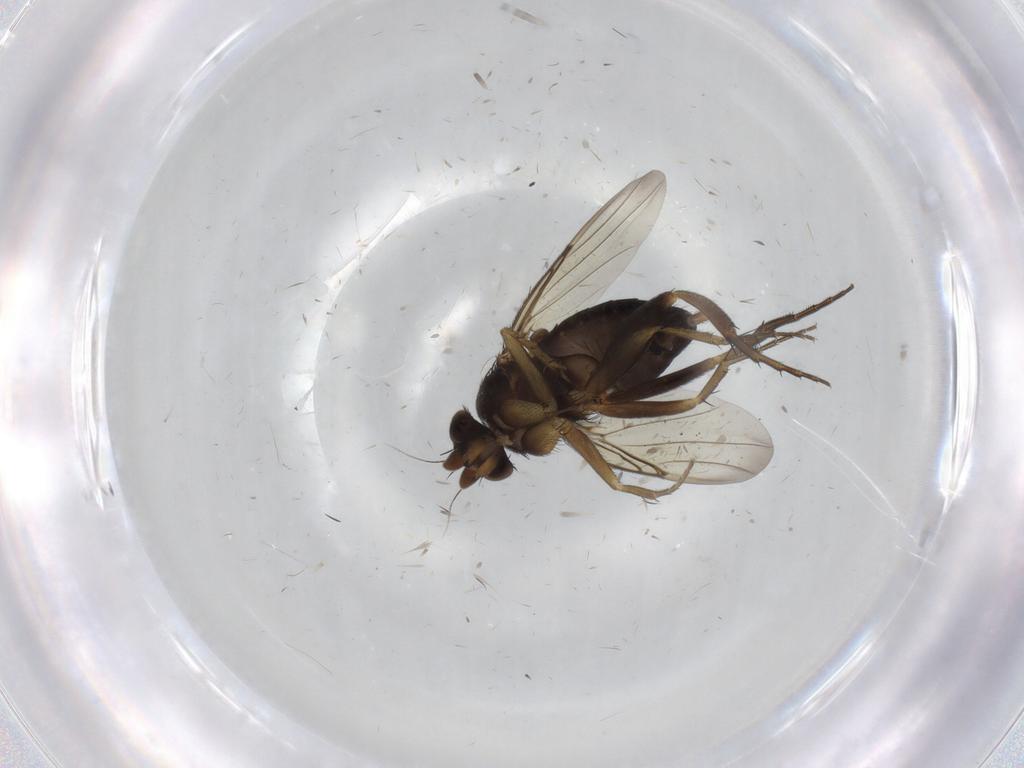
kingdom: Animalia
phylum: Arthropoda
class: Insecta
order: Diptera
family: Phoridae
